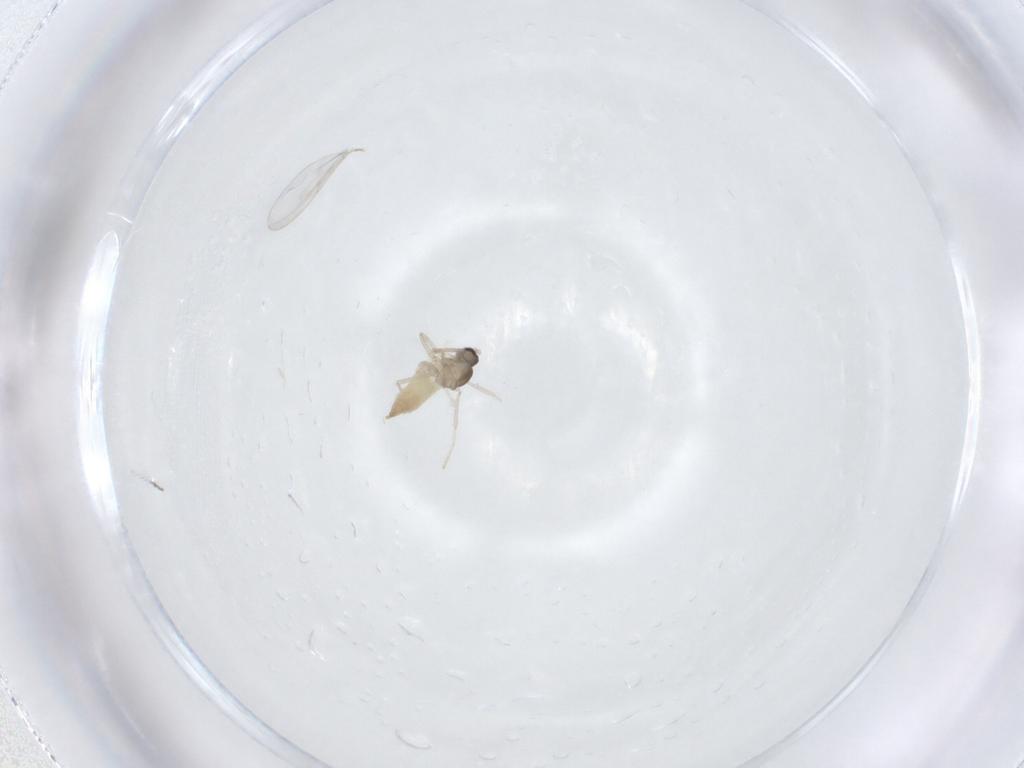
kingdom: Animalia
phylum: Arthropoda
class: Insecta
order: Diptera
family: Cecidomyiidae
